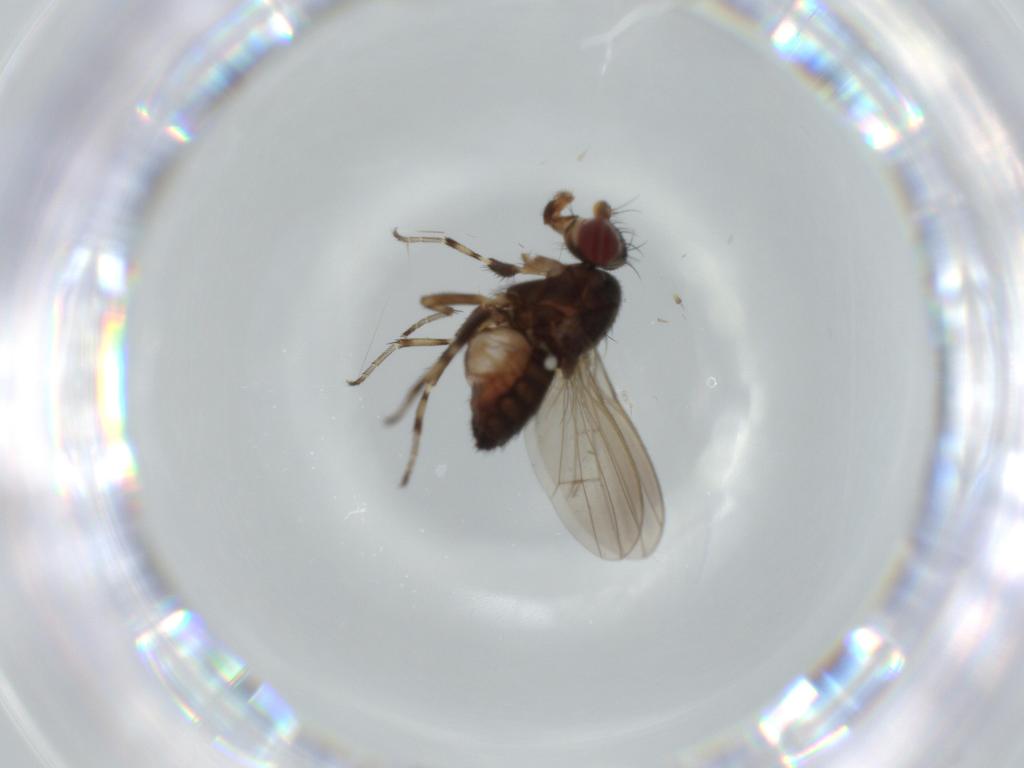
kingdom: Animalia
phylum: Arthropoda
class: Insecta
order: Diptera
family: Heleomyzidae
